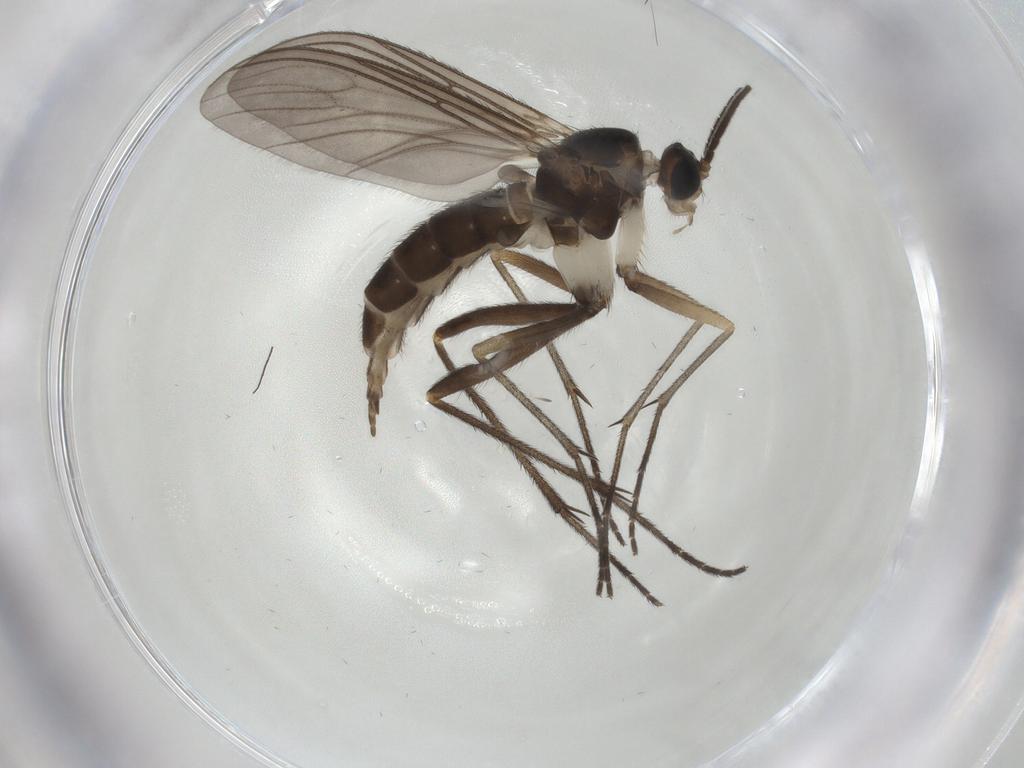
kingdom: Animalia
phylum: Arthropoda
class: Insecta
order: Diptera
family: Sciaridae
